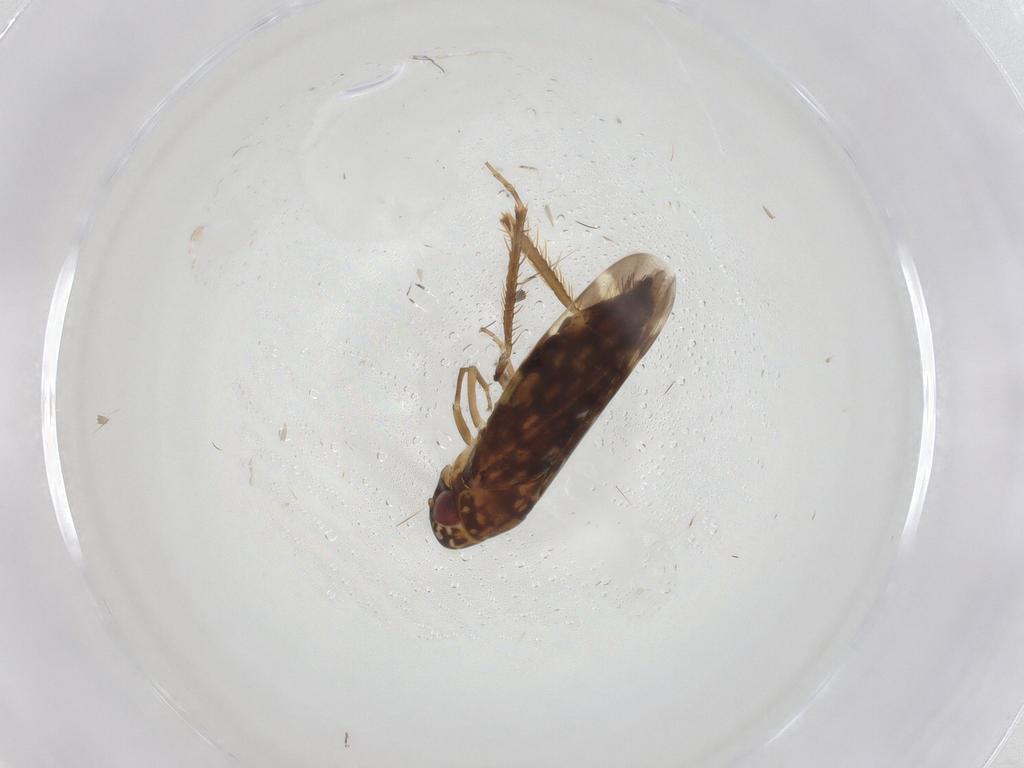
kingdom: Animalia
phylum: Arthropoda
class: Insecta
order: Hemiptera
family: Cicadellidae
